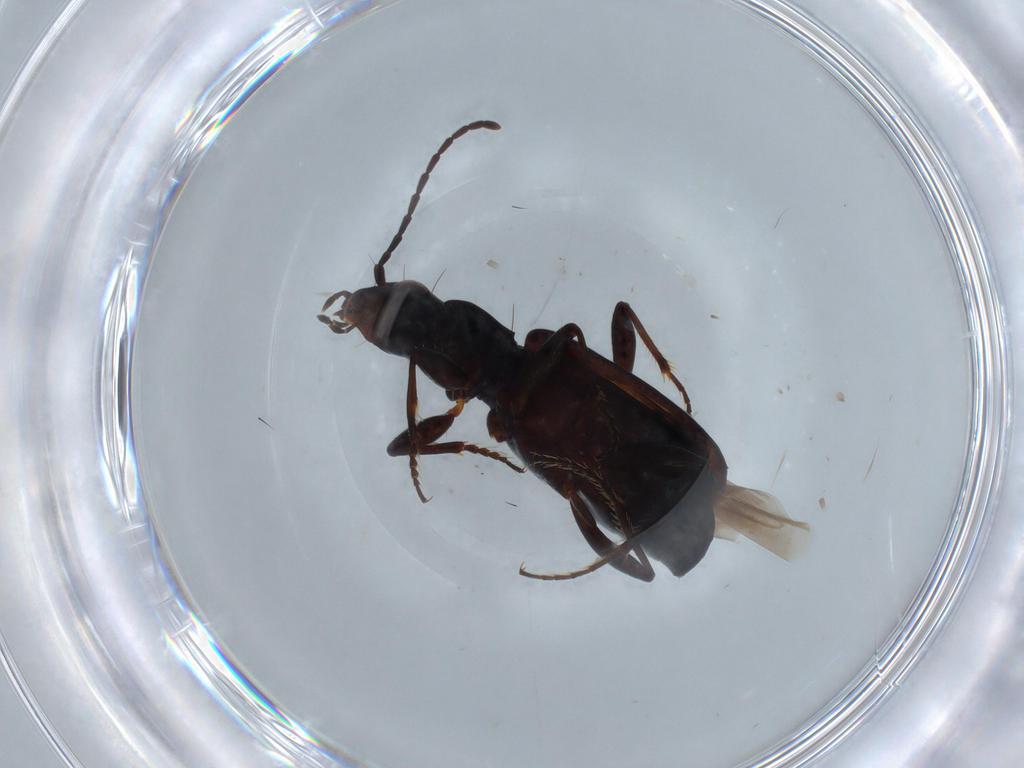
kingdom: Animalia
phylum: Arthropoda
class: Insecta
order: Coleoptera
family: Carabidae
